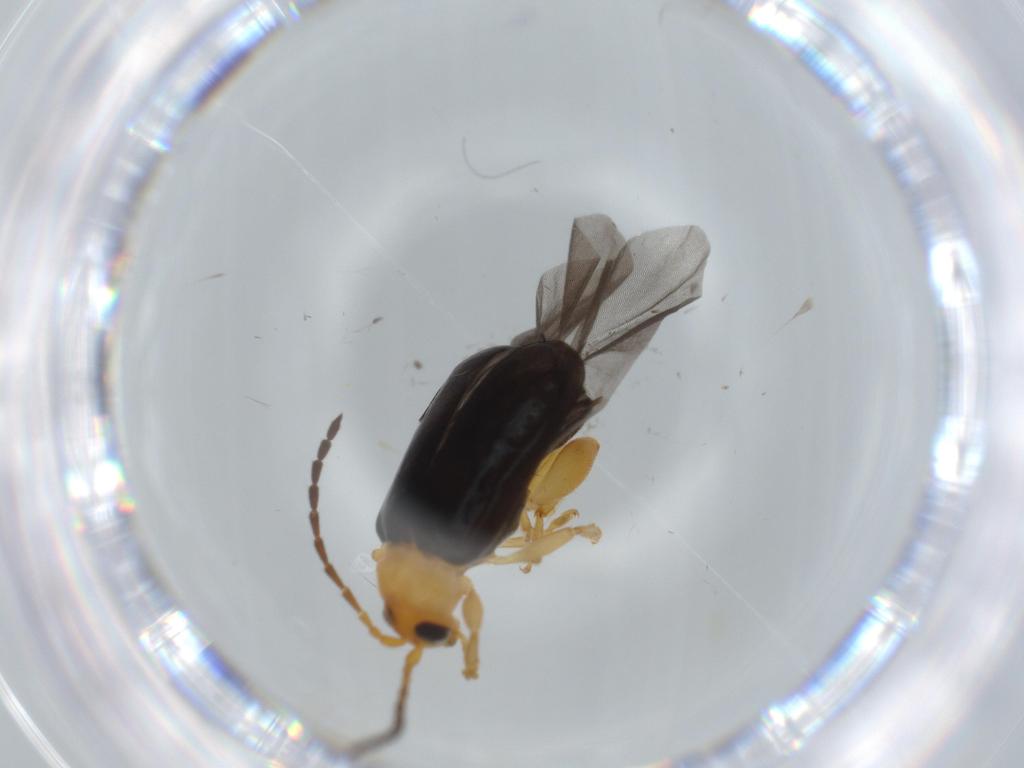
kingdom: Animalia
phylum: Arthropoda
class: Insecta
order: Coleoptera
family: Chrysomelidae
